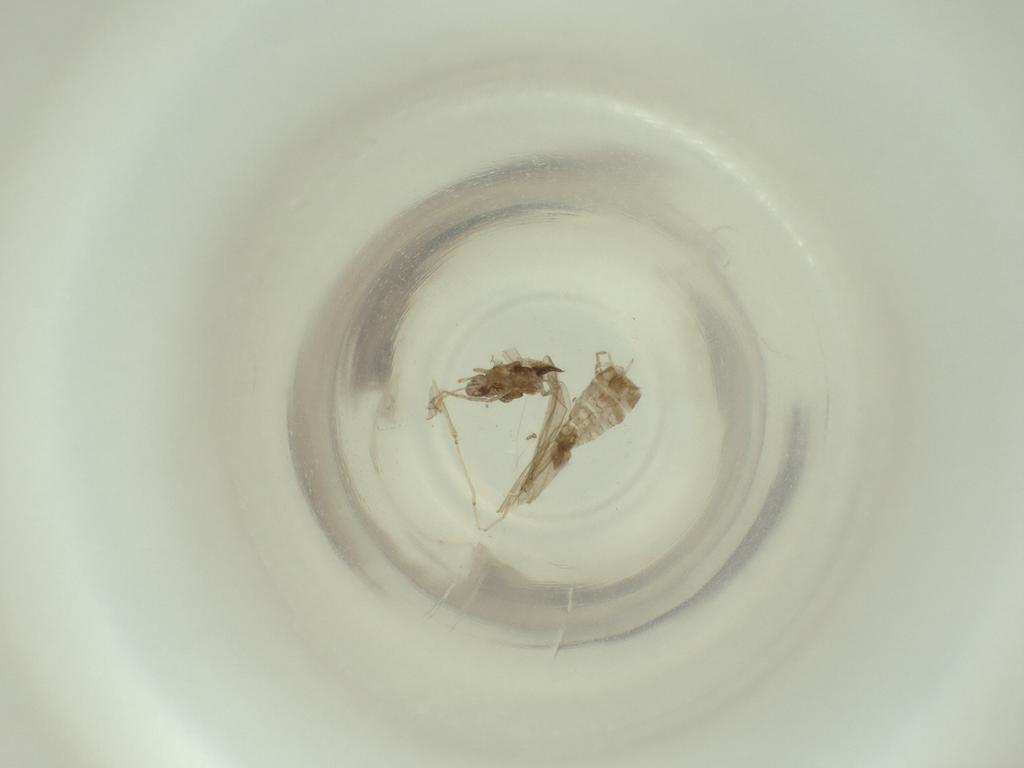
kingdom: Animalia
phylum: Arthropoda
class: Insecta
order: Diptera
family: Cecidomyiidae
